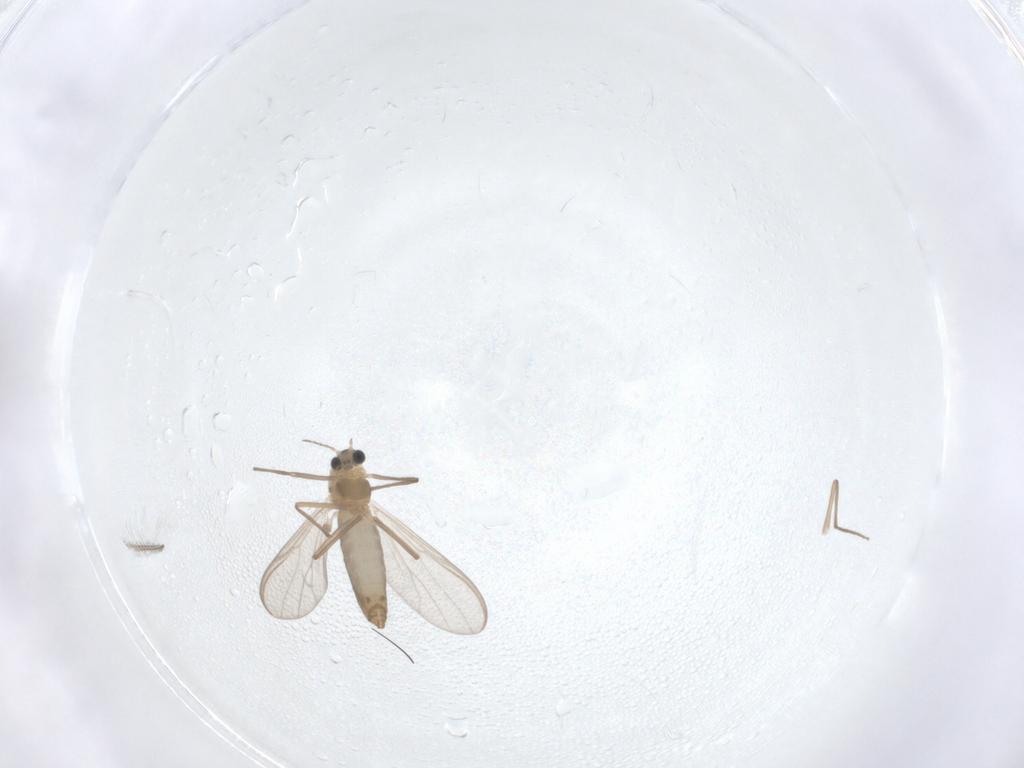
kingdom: Animalia
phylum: Arthropoda
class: Insecta
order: Diptera
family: Chironomidae
